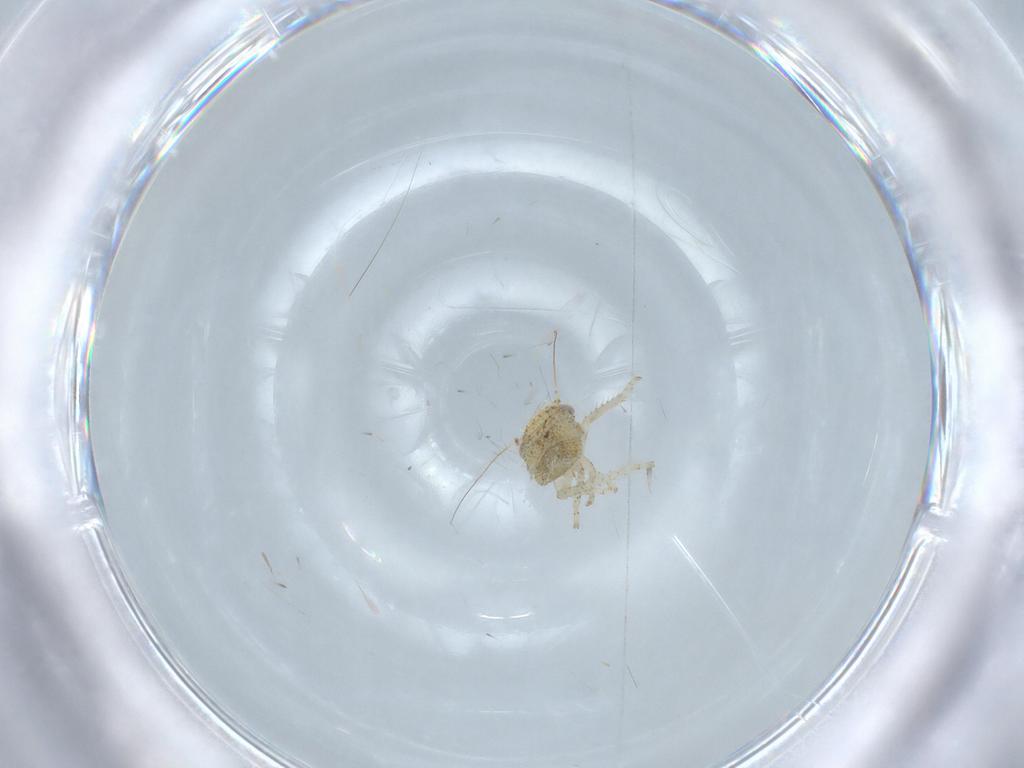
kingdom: Animalia
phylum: Arthropoda
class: Insecta
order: Hemiptera
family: Cicadellidae
